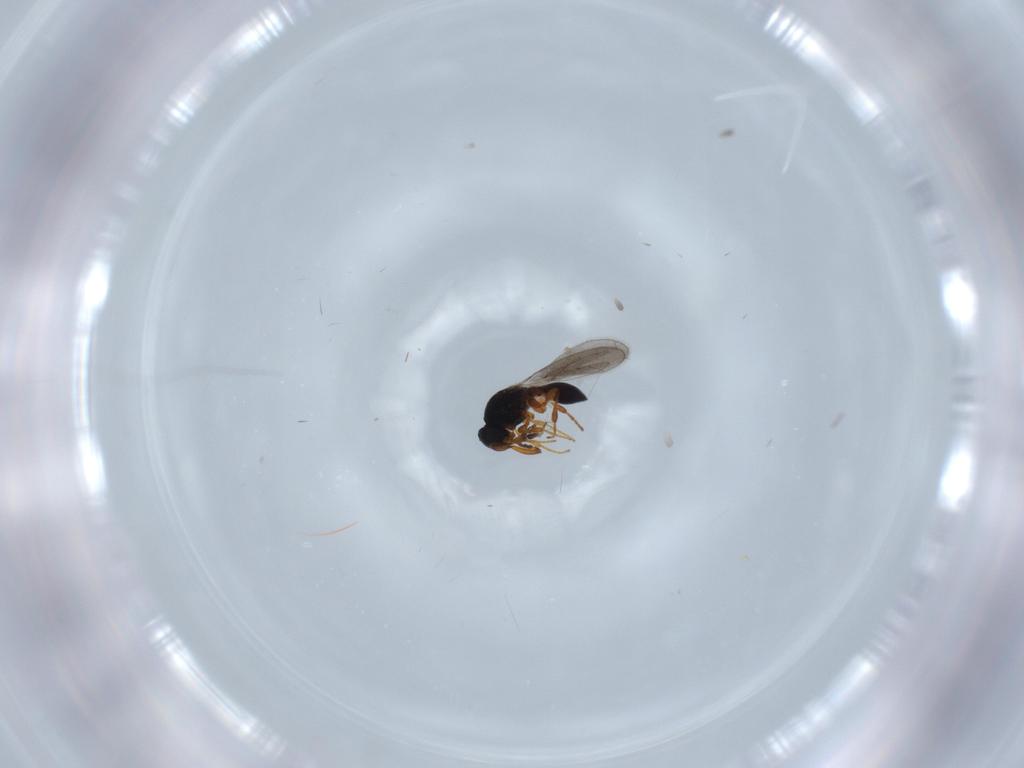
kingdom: Animalia
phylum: Arthropoda
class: Insecta
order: Hymenoptera
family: Platygastridae
